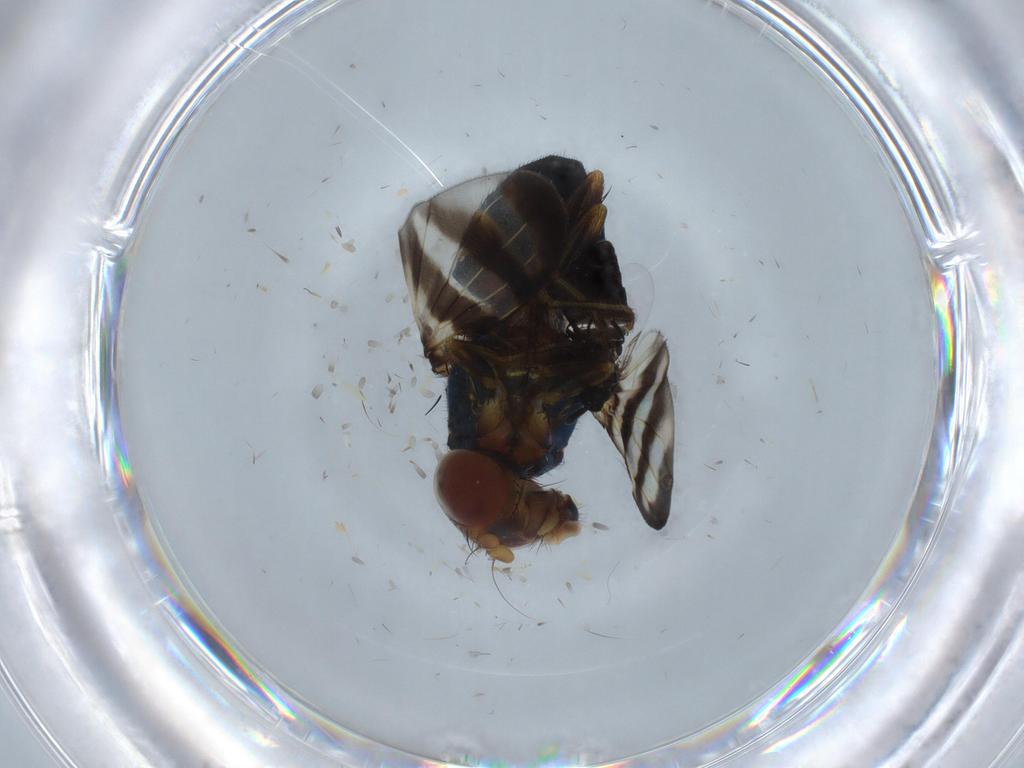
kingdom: Animalia
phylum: Arthropoda
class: Insecta
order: Diptera
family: Chironomidae
